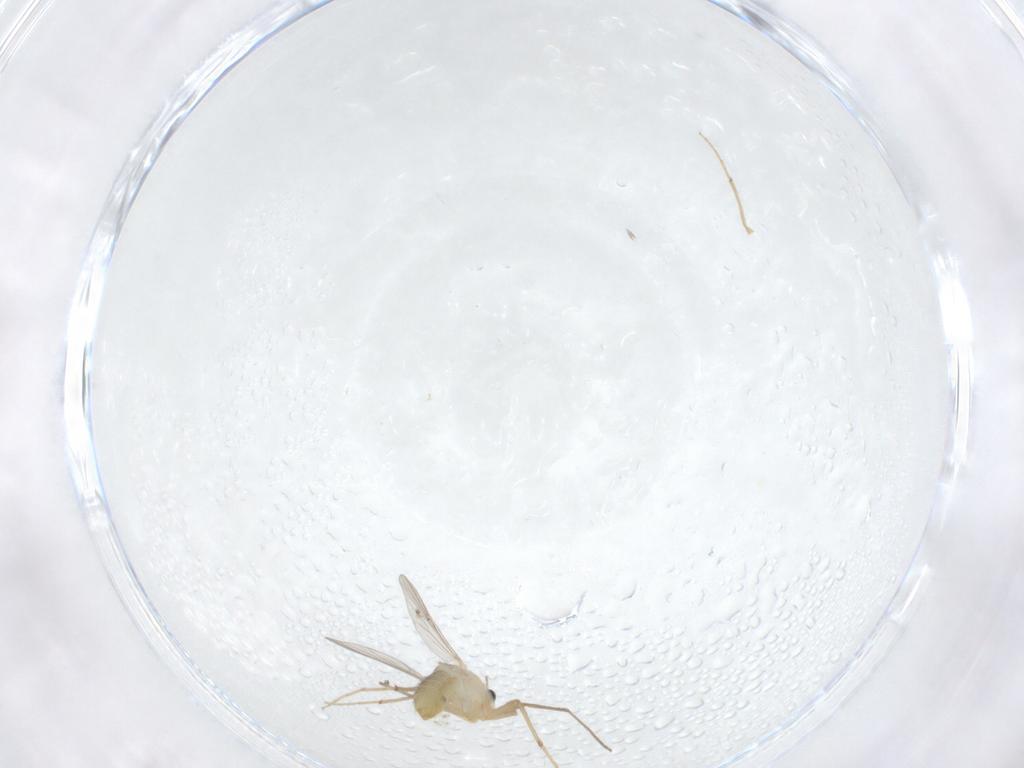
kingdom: Animalia
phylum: Arthropoda
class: Insecta
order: Diptera
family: Chironomidae
